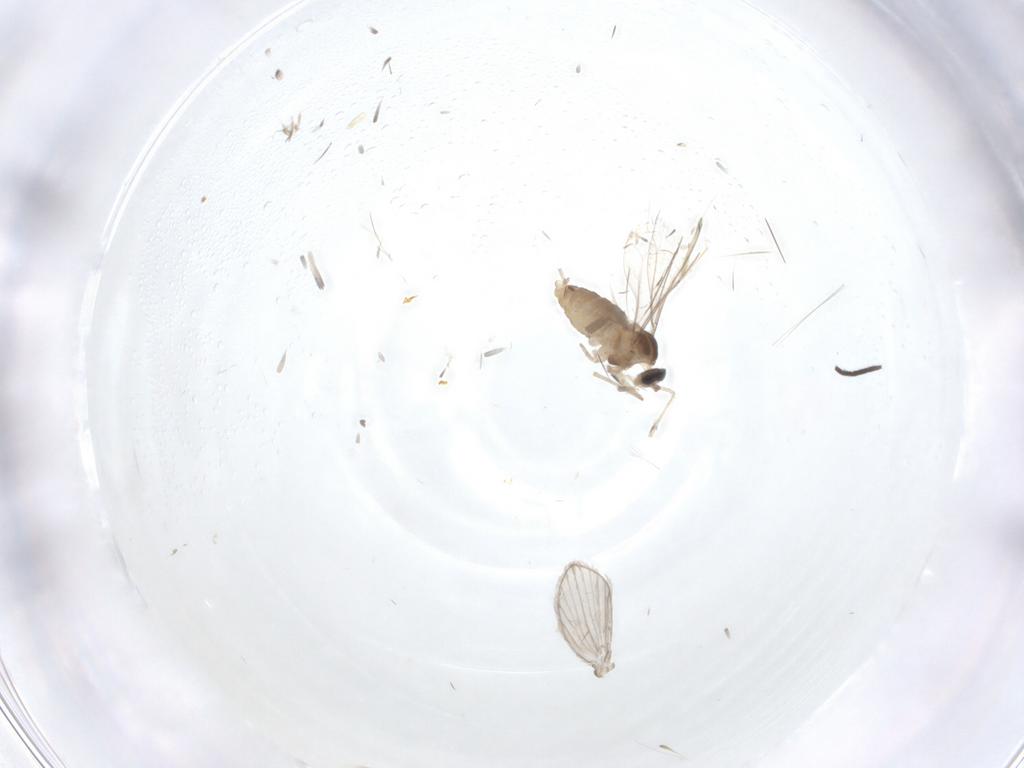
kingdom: Animalia
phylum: Arthropoda
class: Insecta
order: Diptera
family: Cecidomyiidae
